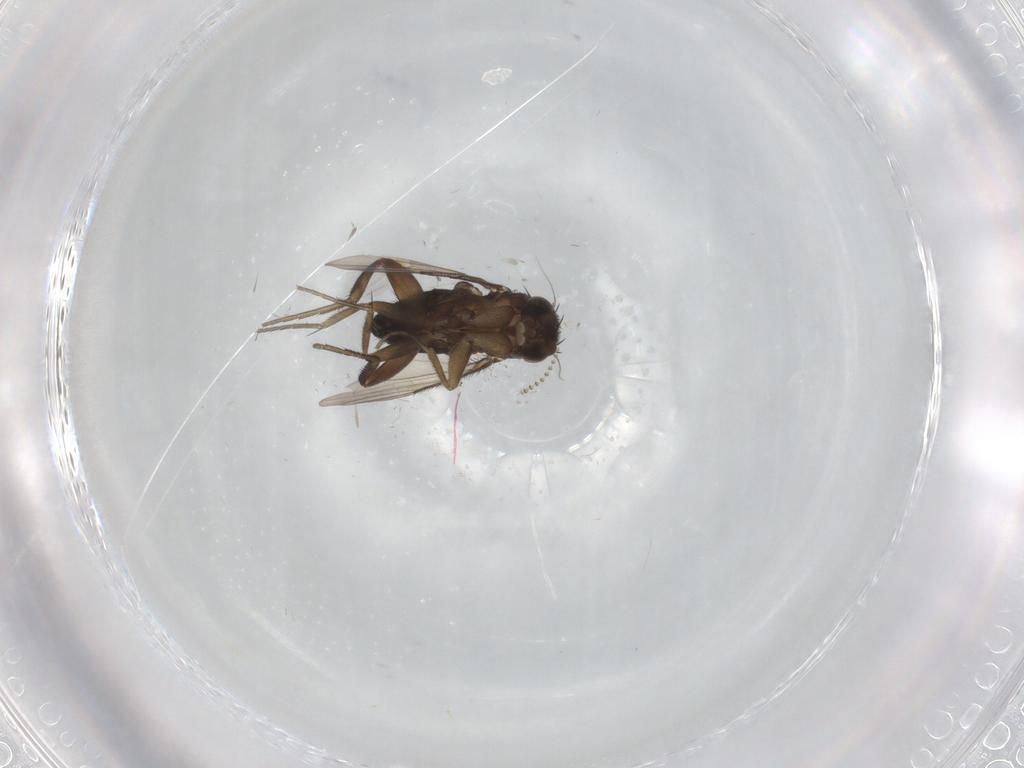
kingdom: Animalia
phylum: Arthropoda
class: Insecta
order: Diptera
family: Phoridae
